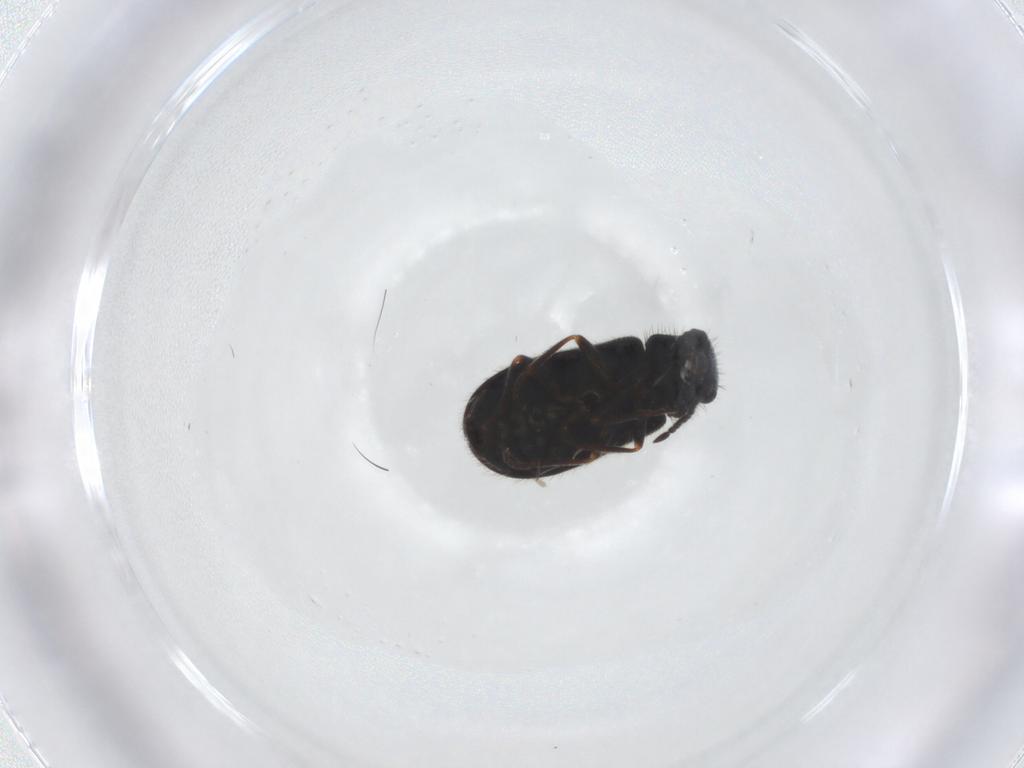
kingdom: Animalia
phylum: Arthropoda
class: Insecta
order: Coleoptera
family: Melyridae
